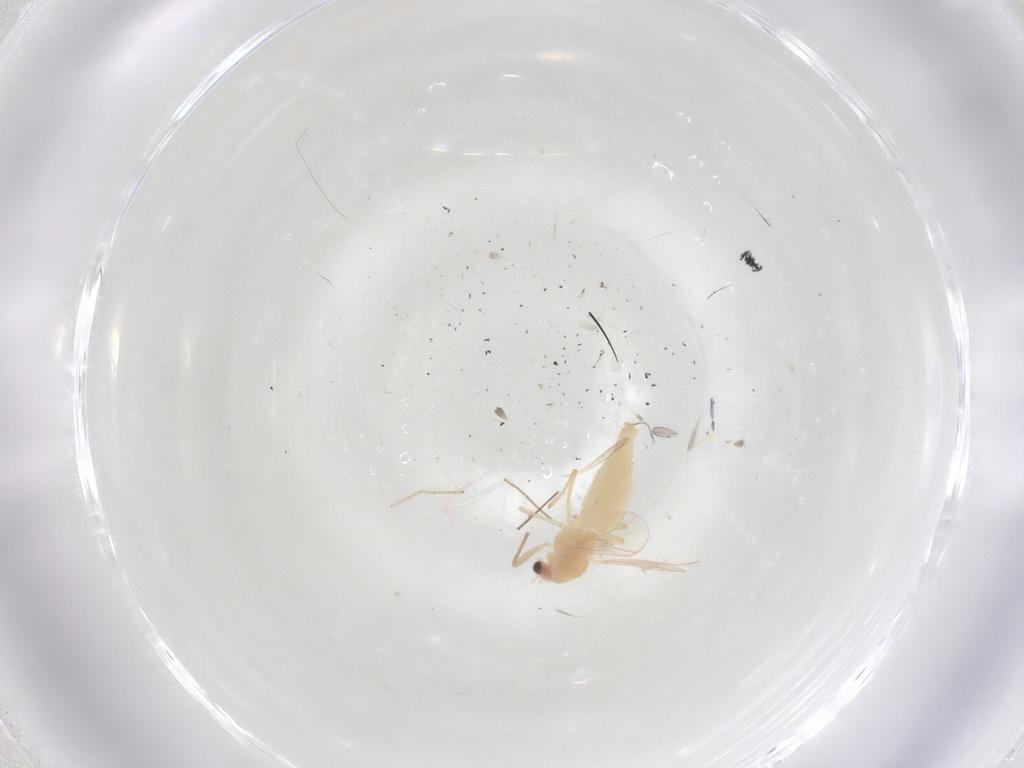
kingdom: Animalia
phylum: Arthropoda
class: Insecta
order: Diptera
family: Chironomidae
